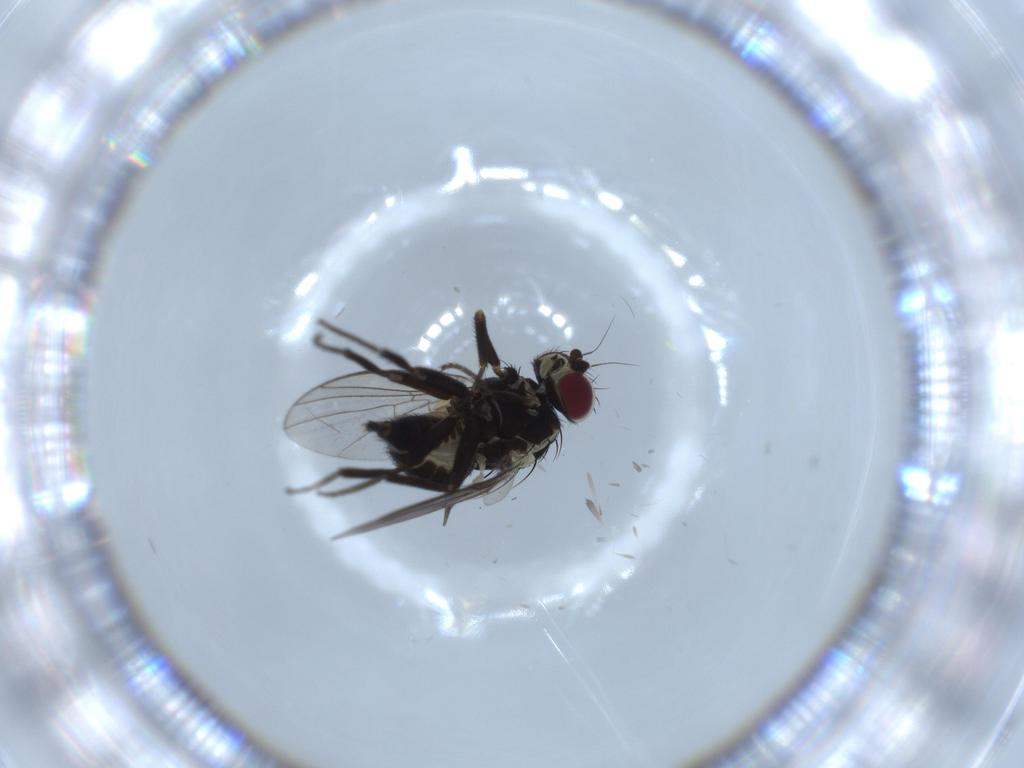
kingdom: Animalia
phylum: Arthropoda
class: Insecta
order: Diptera
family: Agromyzidae
